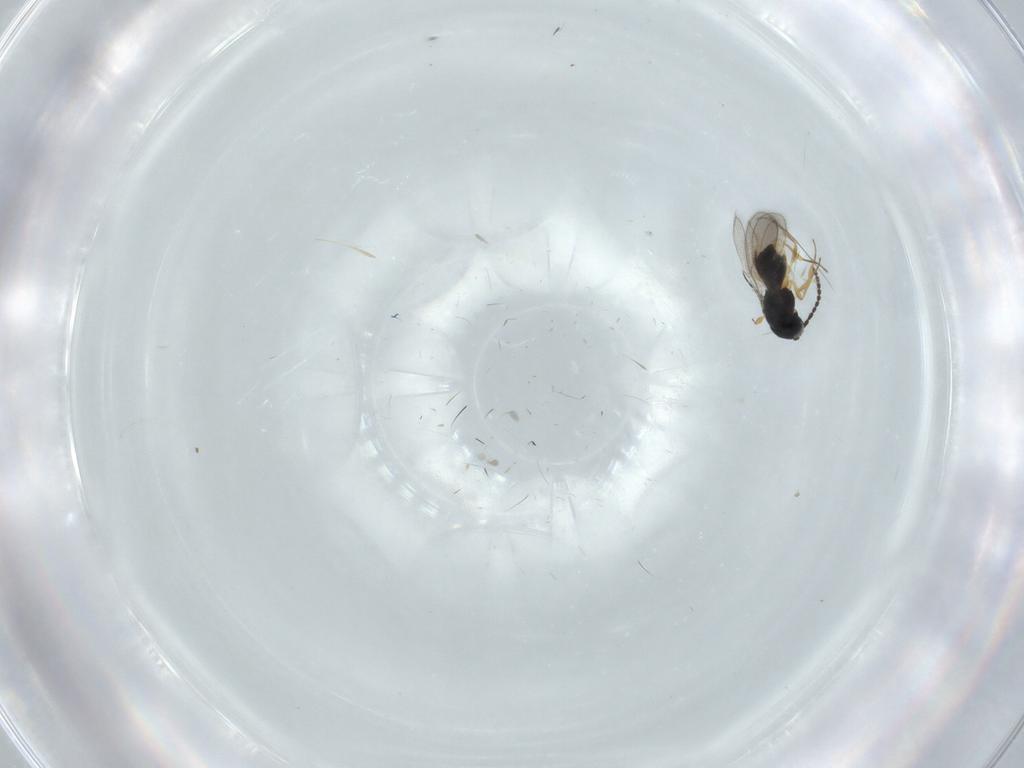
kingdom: Animalia
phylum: Arthropoda
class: Insecta
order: Hymenoptera
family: Scelionidae
